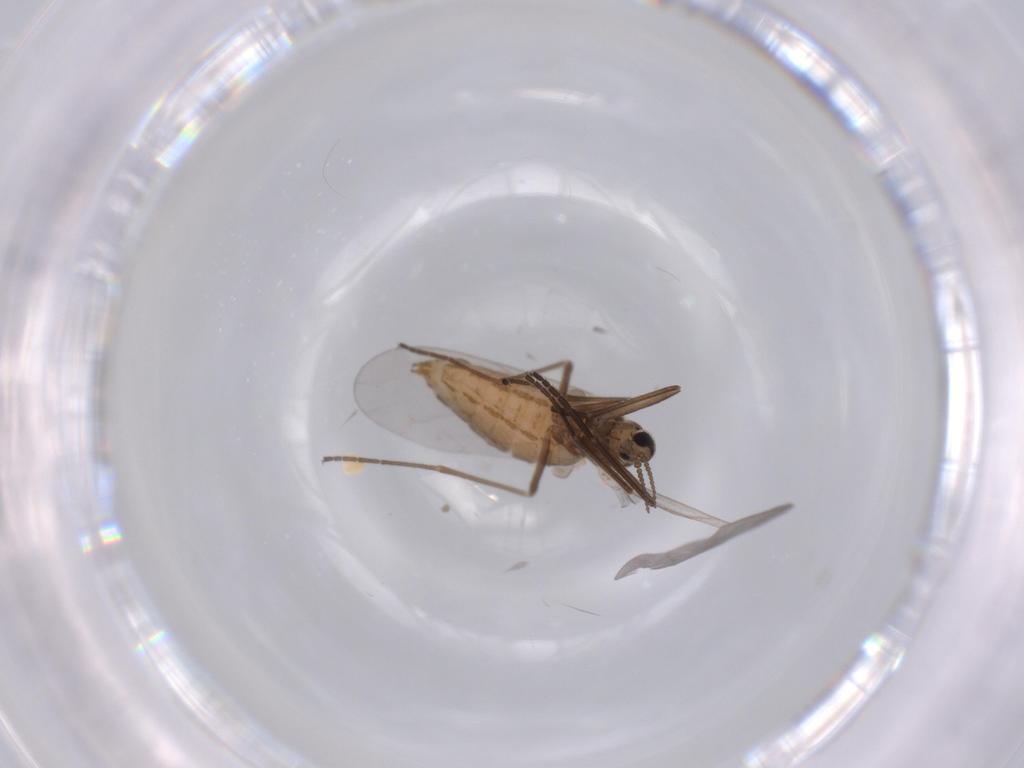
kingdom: Animalia
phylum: Arthropoda
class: Insecta
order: Diptera
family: Cecidomyiidae
